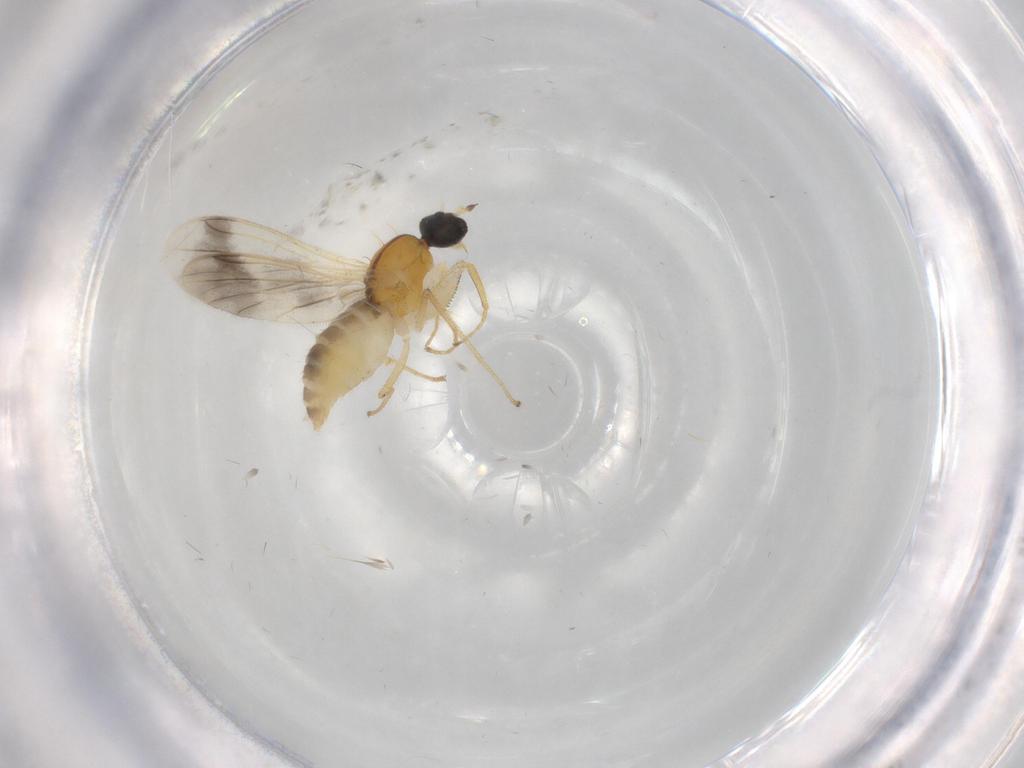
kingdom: Animalia
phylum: Arthropoda
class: Insecta
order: Diptera
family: Empididae
